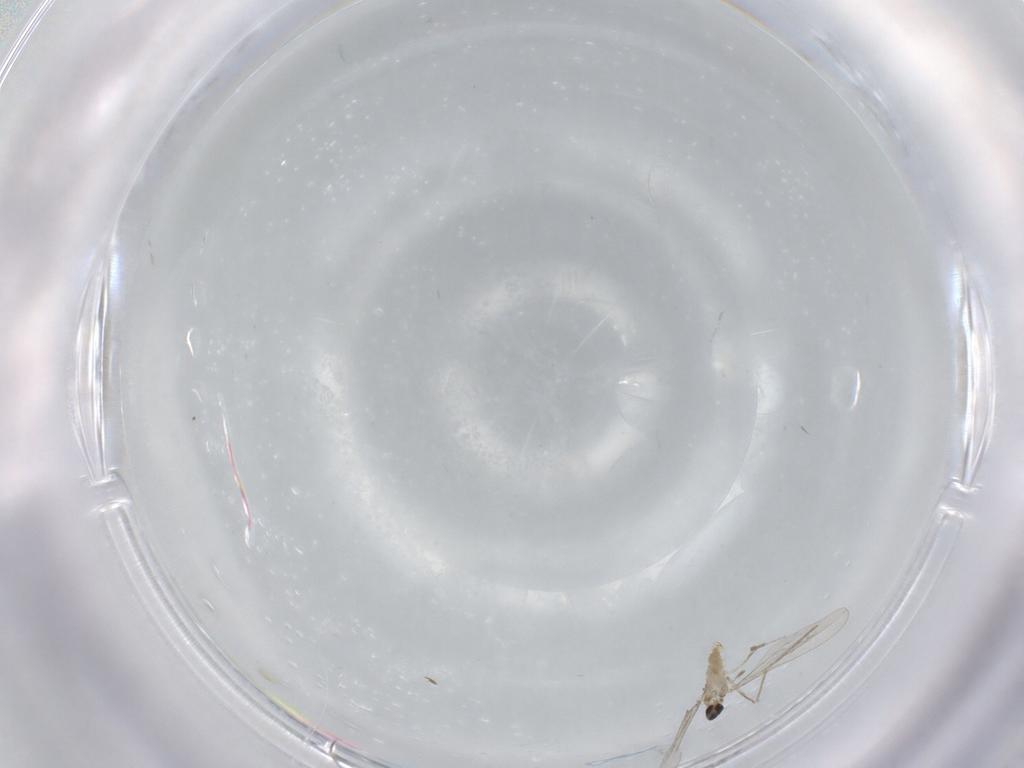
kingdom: Animalia
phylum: Arthropoda
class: Insecta
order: Diptera
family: Cecidomyiidae
